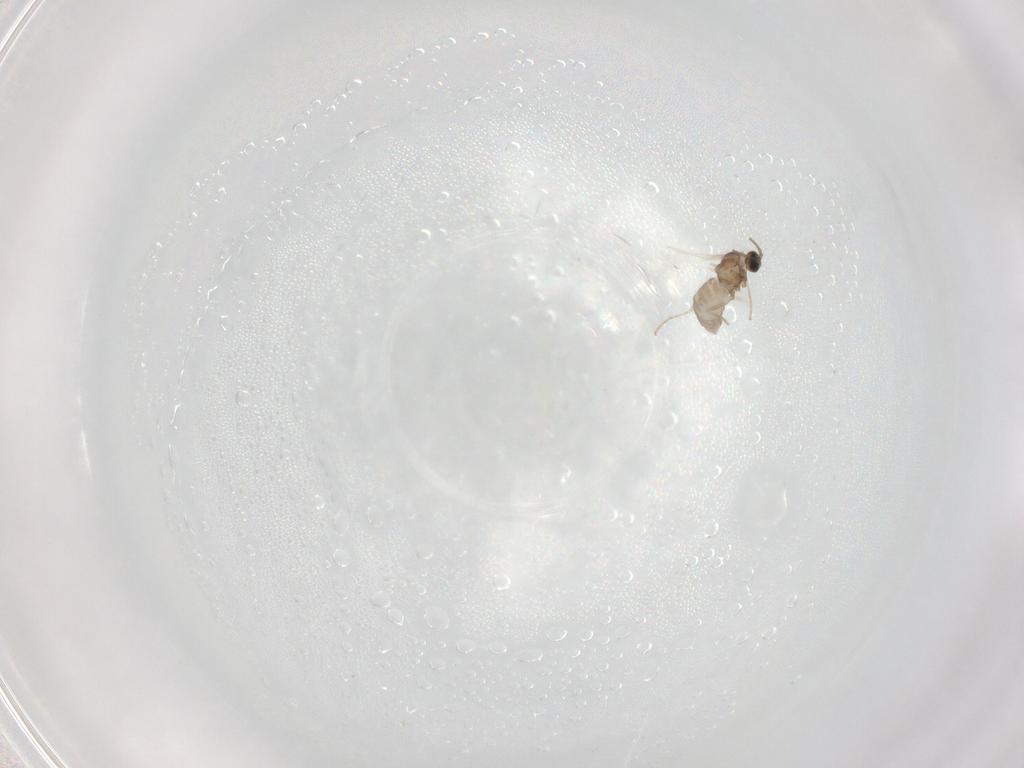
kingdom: Animalia
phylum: Arthropoda
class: Insecta
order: Diptera
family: Cecidomyiidae
